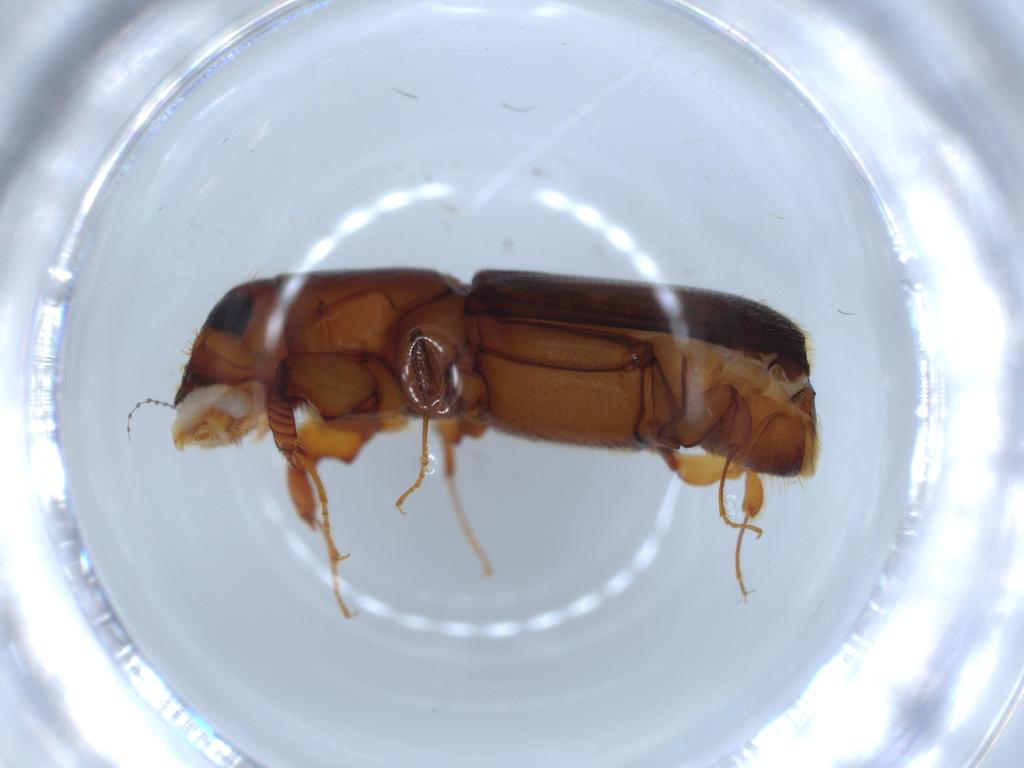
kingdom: Animalia
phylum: Arthropoda
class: Insecta
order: Coleoptera
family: Curculionidae
